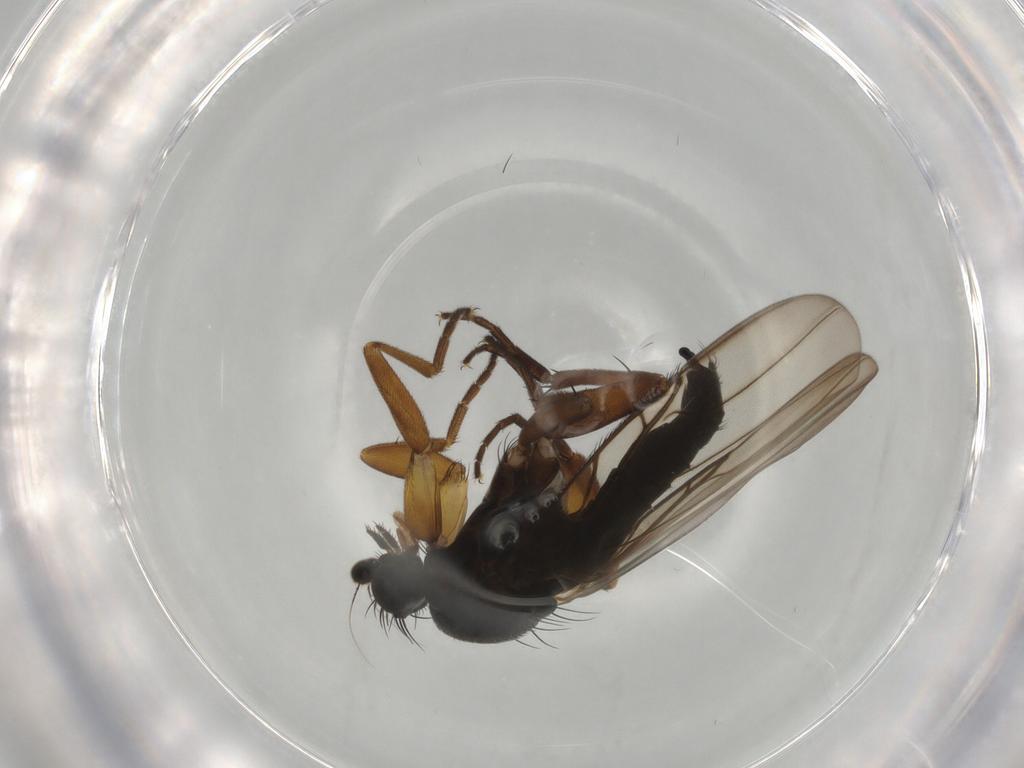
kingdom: Animalia
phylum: Arthropoda
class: Insecta
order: Diptera
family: Phoridae
